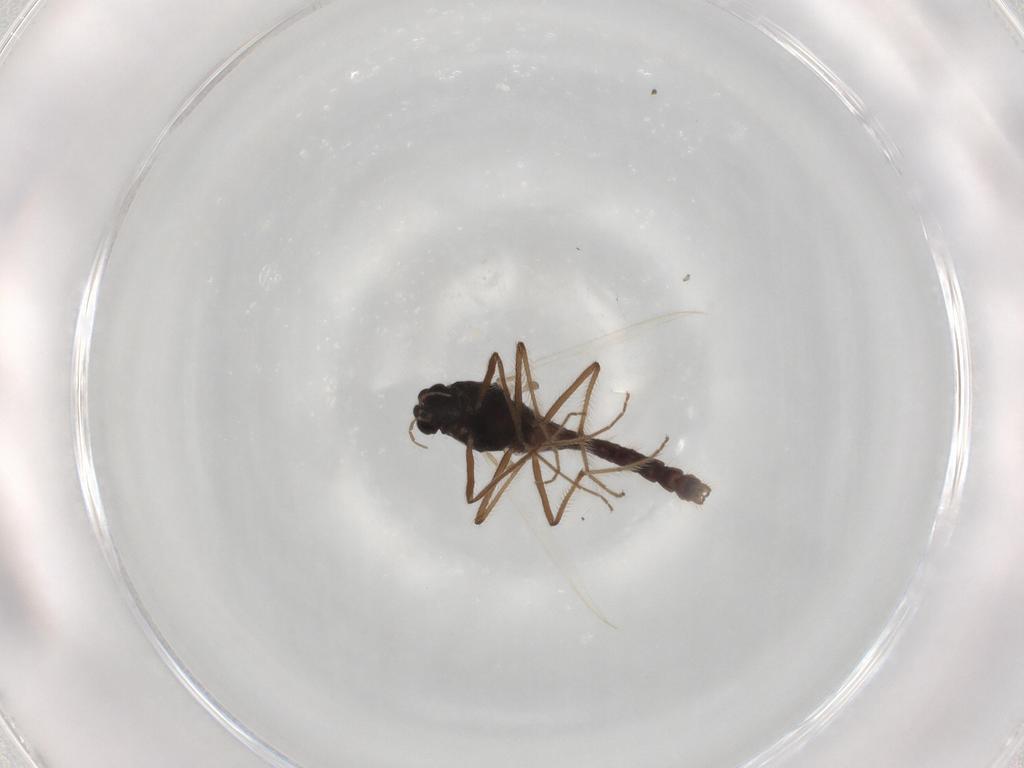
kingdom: Animalia
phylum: Arthropoda
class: Insecta
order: Diptera
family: Chironomidae
